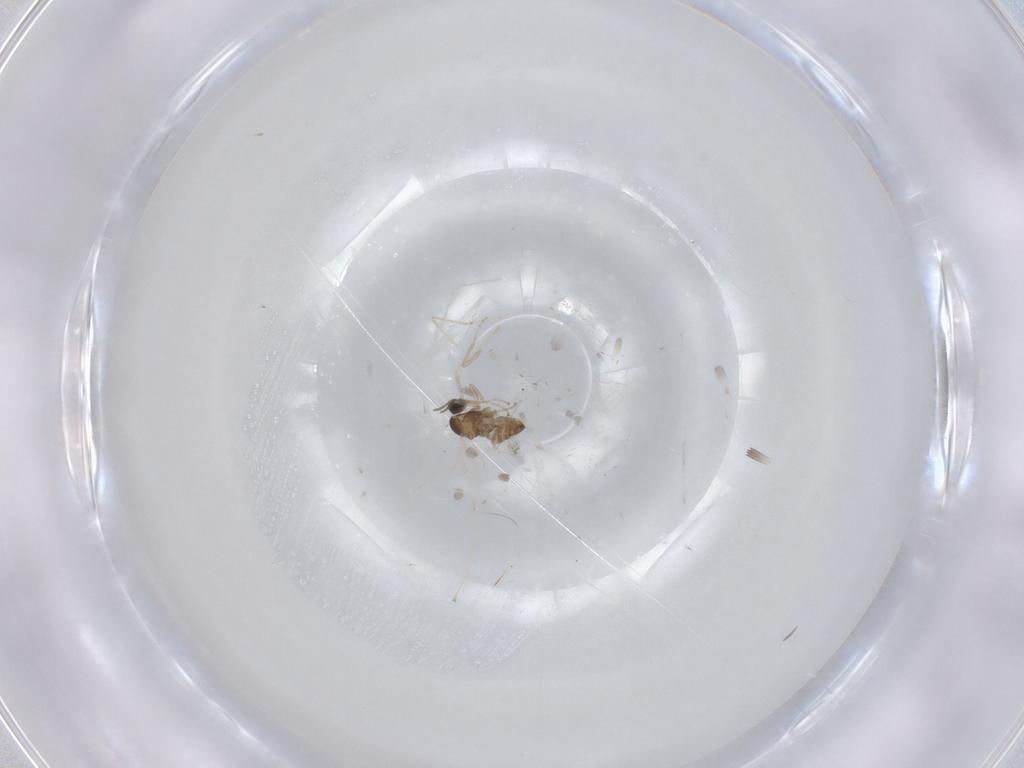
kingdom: Animalia
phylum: Arthropoda
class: Insecta
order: Diptera
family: Cecidomyiidae
